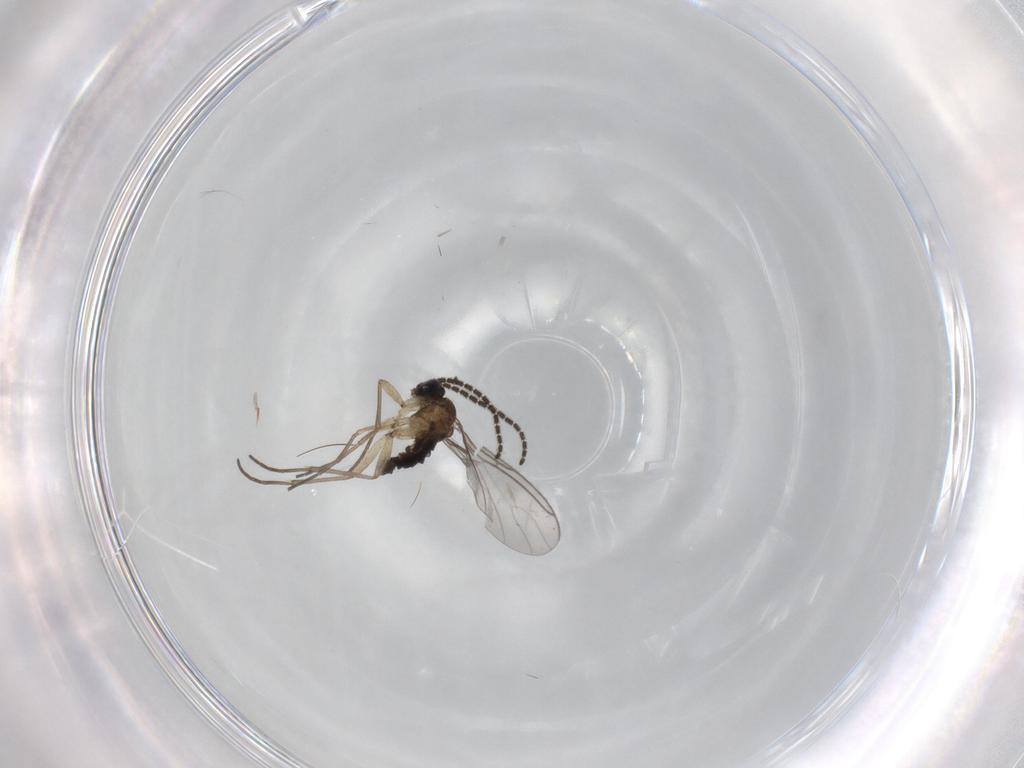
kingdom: Animalia
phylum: Arthropoda
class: Insecta
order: Diptera
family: Sciaridae
